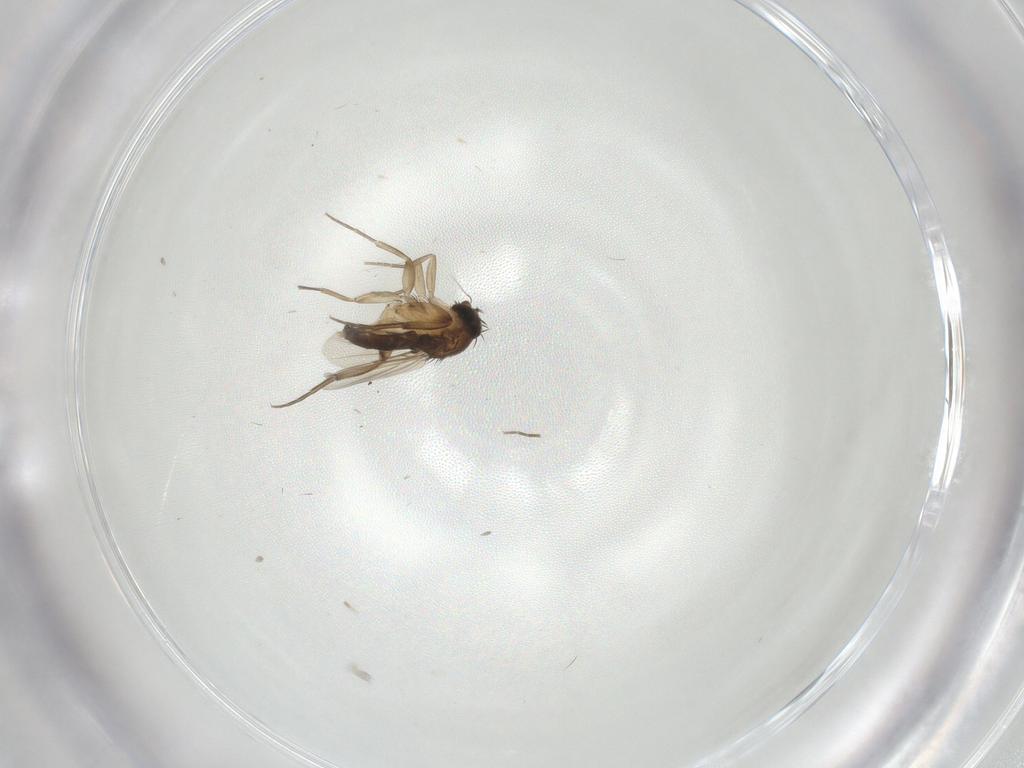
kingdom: Animalia
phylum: Arthropoda
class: Insecta
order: Diptera
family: Phoridae
